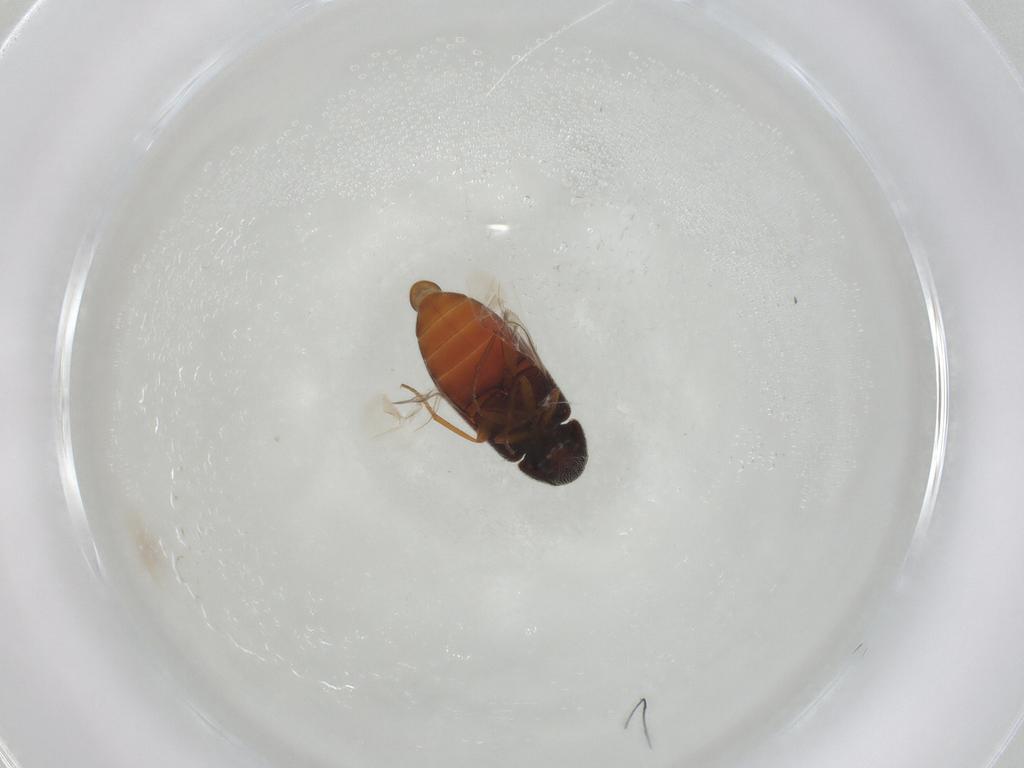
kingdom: Animalia
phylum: Arthropoda
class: Insecta
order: Coleoptera
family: Rhadalidae
